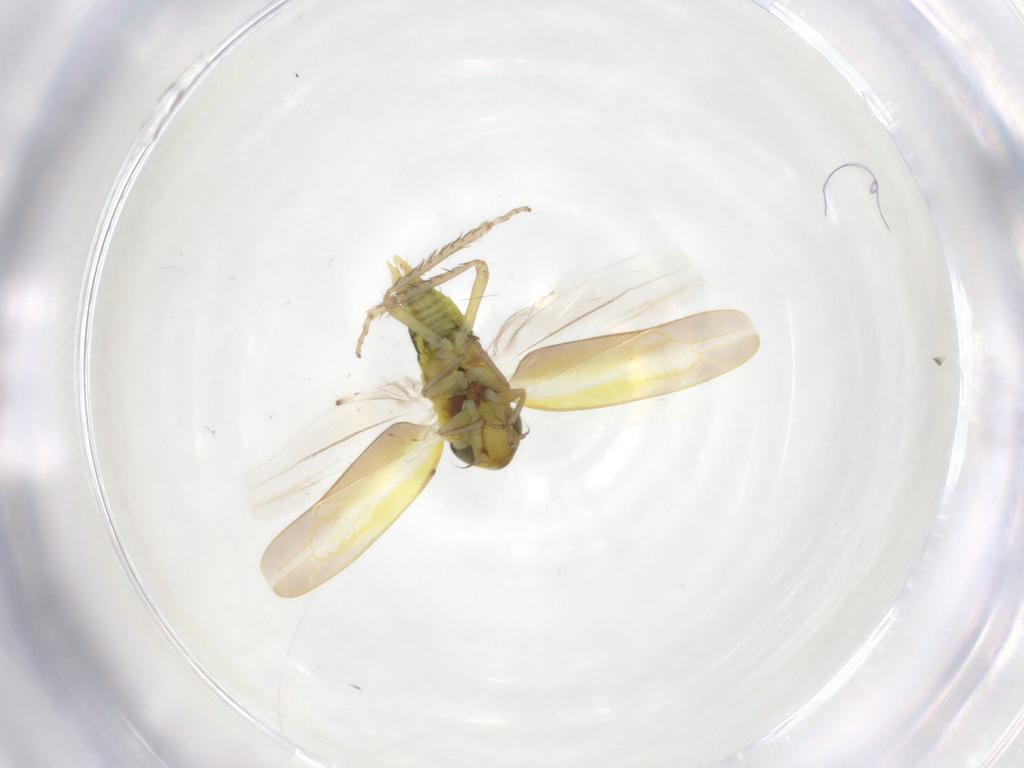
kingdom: Animalia
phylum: Arthropoda
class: Insecta
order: Hemiptera
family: Cicadellidae
